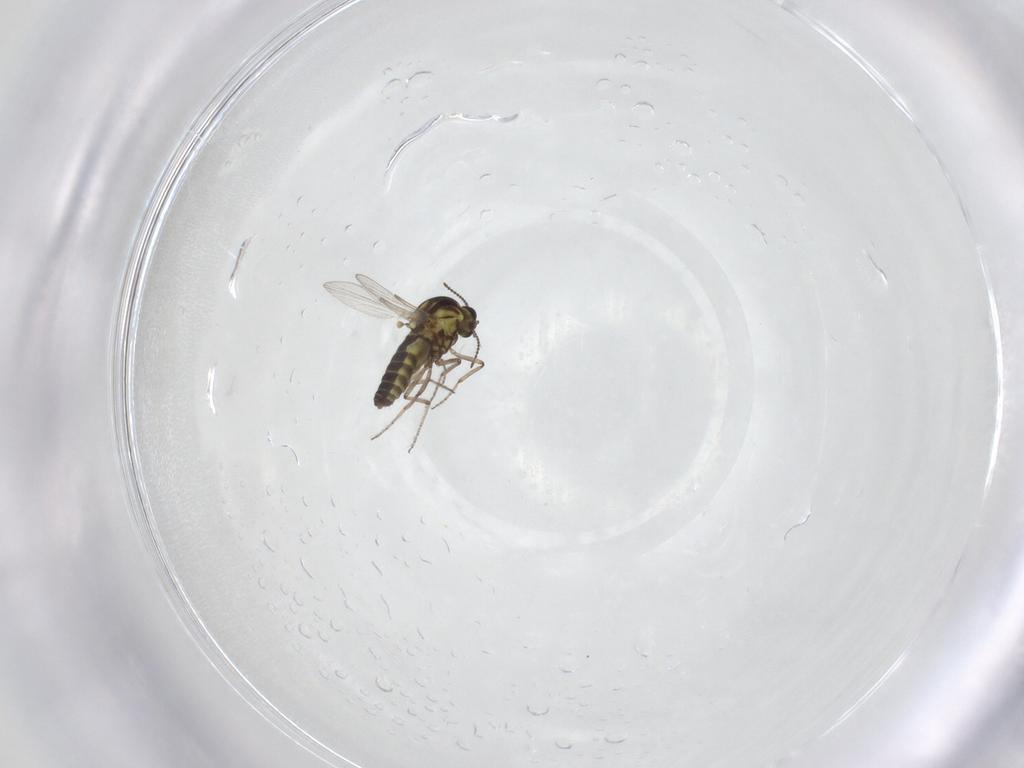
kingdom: Animalia
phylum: Arthropoda
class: Insecta
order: Diptera
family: Ceratopogonidae
